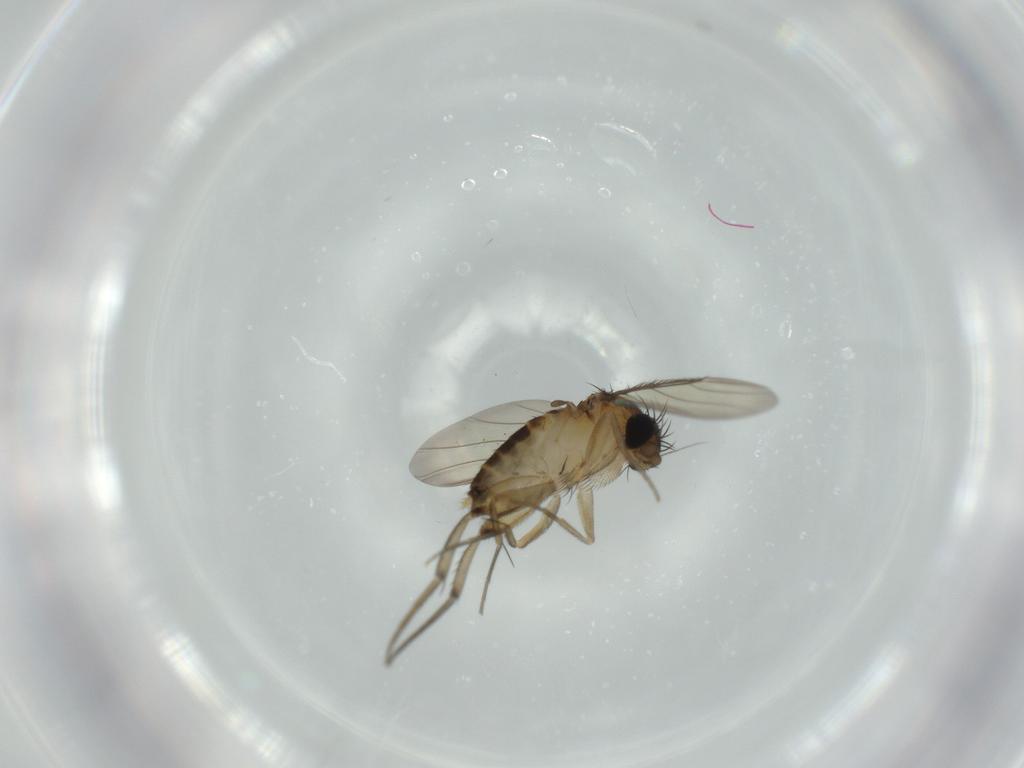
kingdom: Animalia
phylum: Arthropoda
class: Insecta
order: Diptera
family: Phoridae
